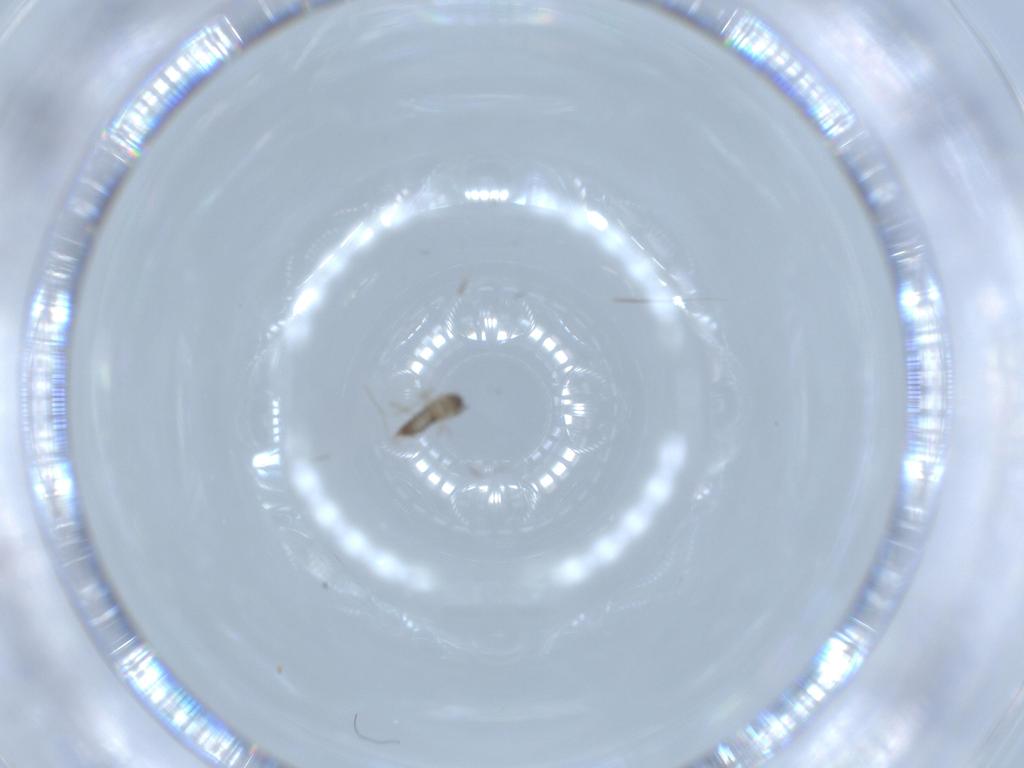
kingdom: Animalia
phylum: Arthropoda
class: Insecta
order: Diptera
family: Cecidomyiidae
